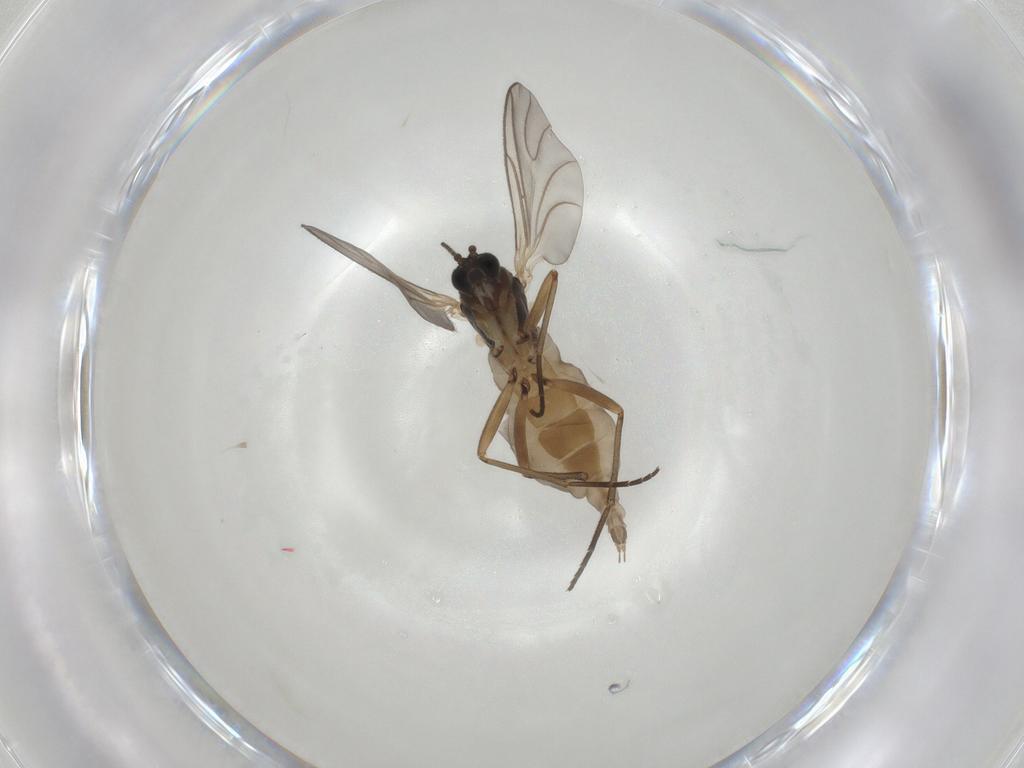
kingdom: Animalia
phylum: Arthropoda
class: Insecta
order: Diptera
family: Sciaridae
